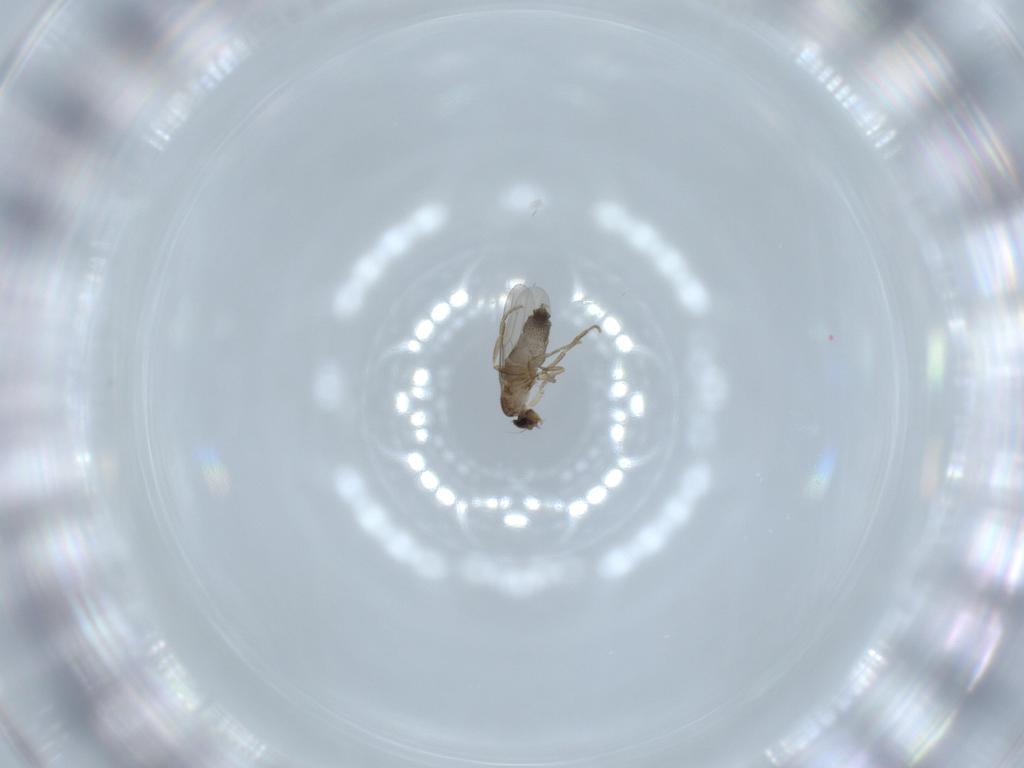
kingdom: Animalia
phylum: Arthropoda
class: Insecta
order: Diptera
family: Phoridae
